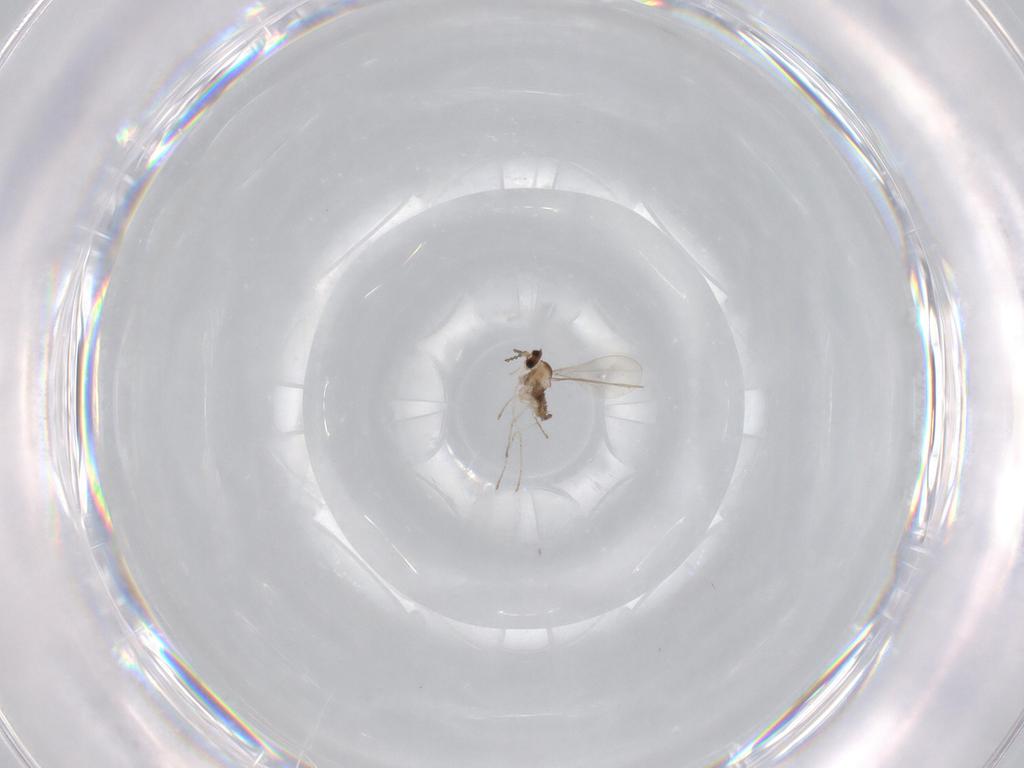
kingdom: Animalia
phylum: Arthropoda
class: Insecta
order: Diptera
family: Cecidomyiidae
